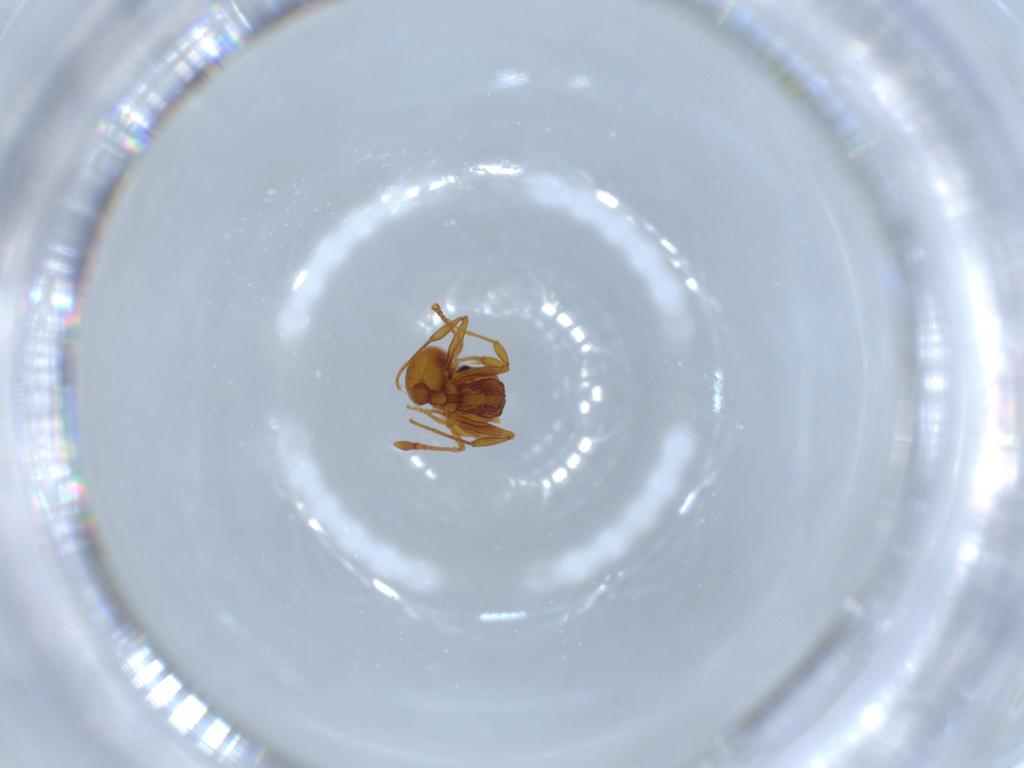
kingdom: Animalia
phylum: Arthropoda
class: Insecta
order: Hymenoptera
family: Formicidae
